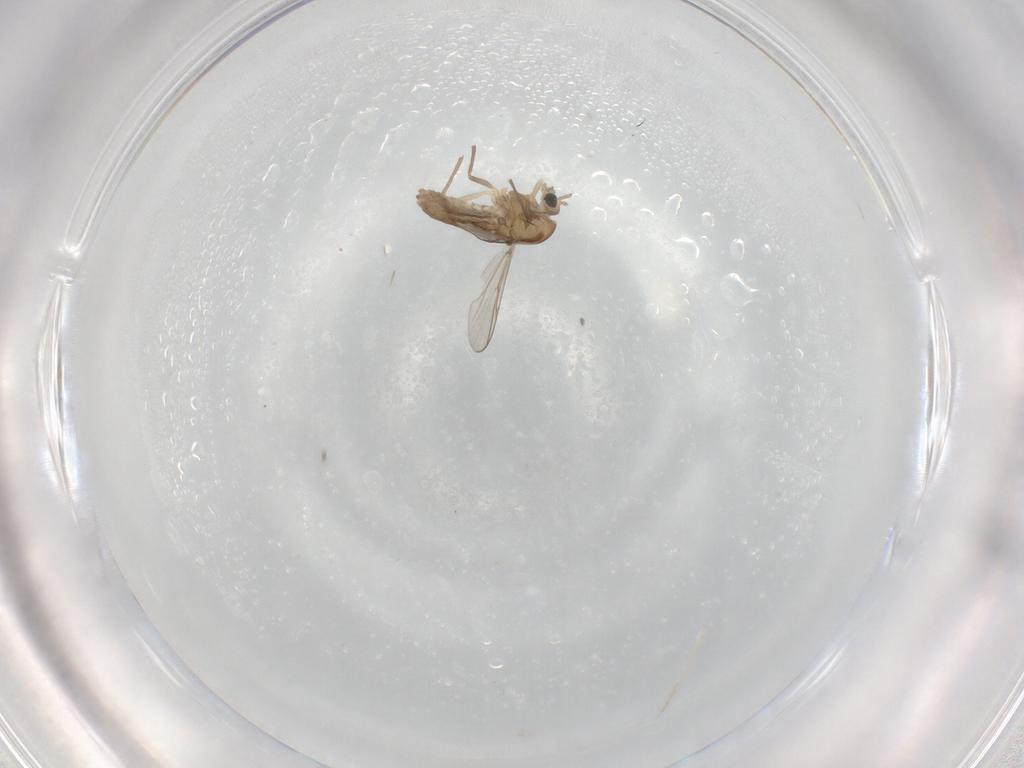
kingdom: Animalia
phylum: Arthropoda
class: Insecta
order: Diptera
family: Chironomidae
